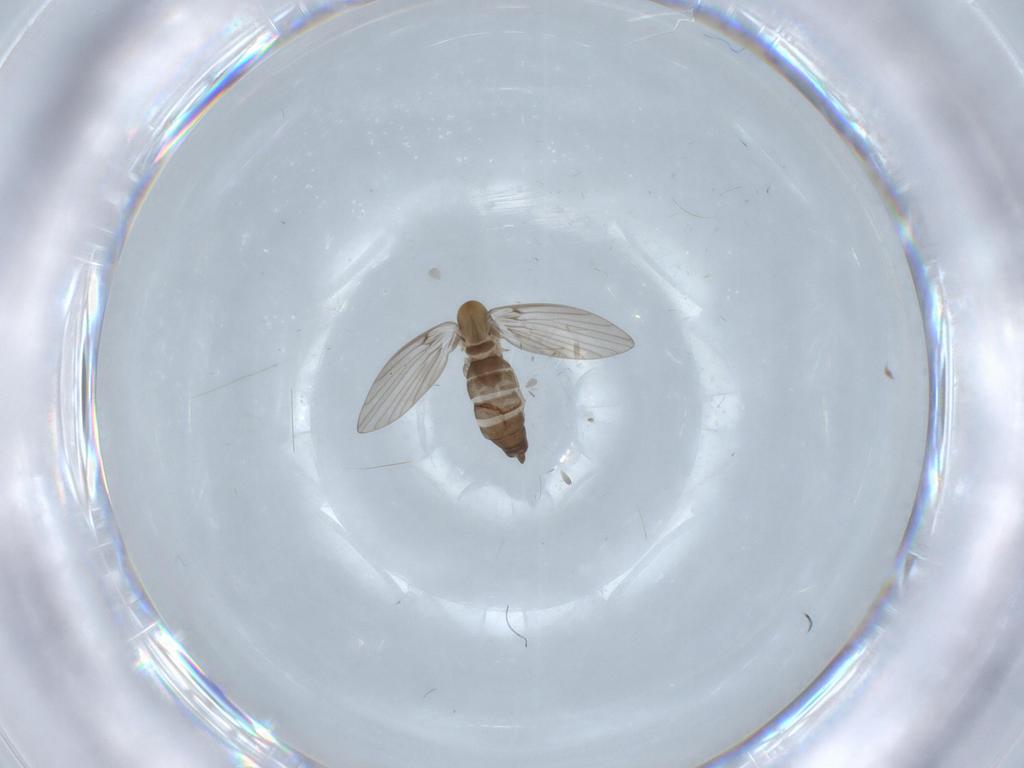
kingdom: Animalia
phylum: Arthropoda
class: Insecta
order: Diptera
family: Psychodidae
